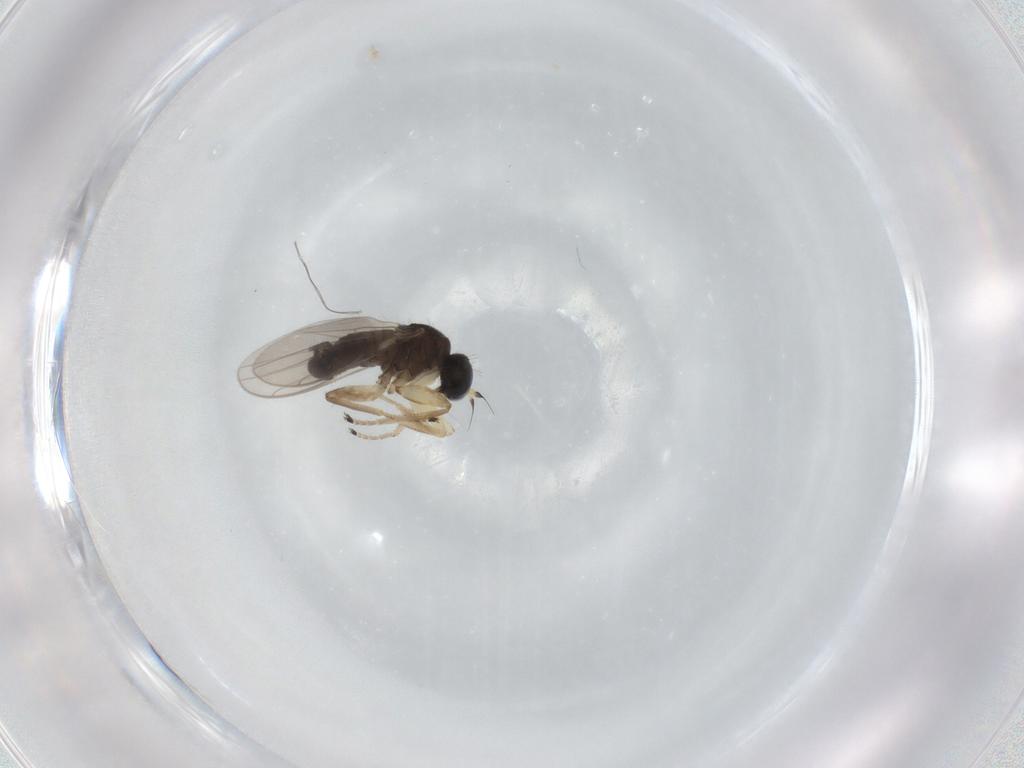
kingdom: Animalia
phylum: Arthropoda
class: Insecta
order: Diptera
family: Hybotidae
